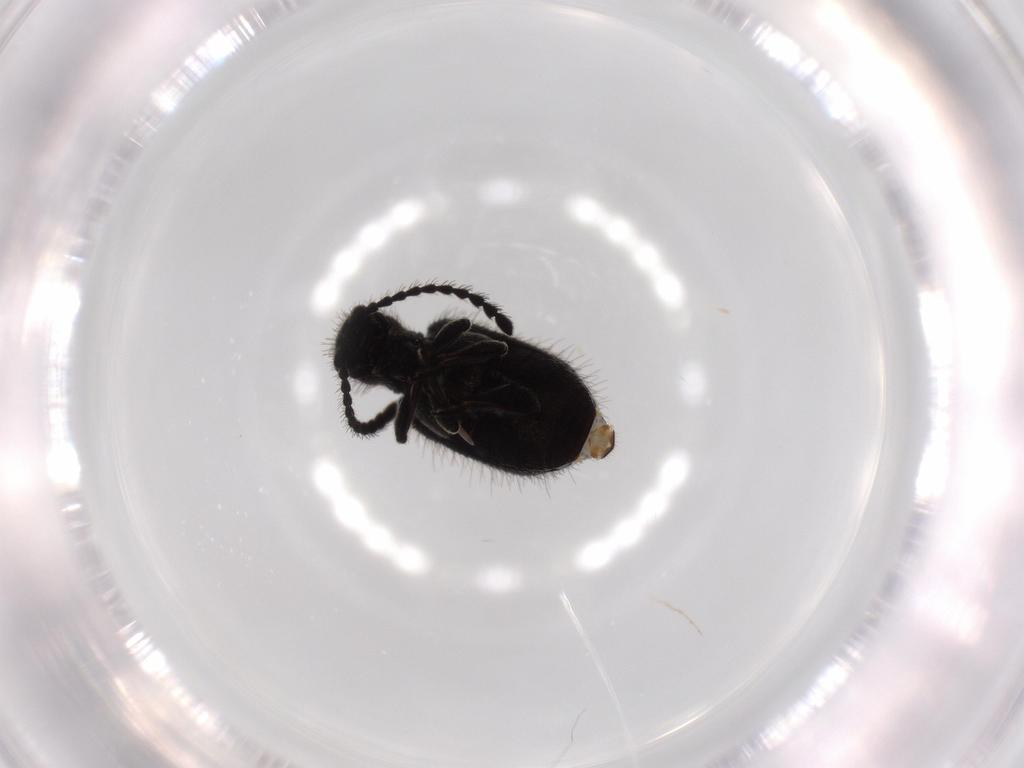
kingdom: Animalia
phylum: Arthropoda
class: Insecta
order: Coleoptera
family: Ptinidae
